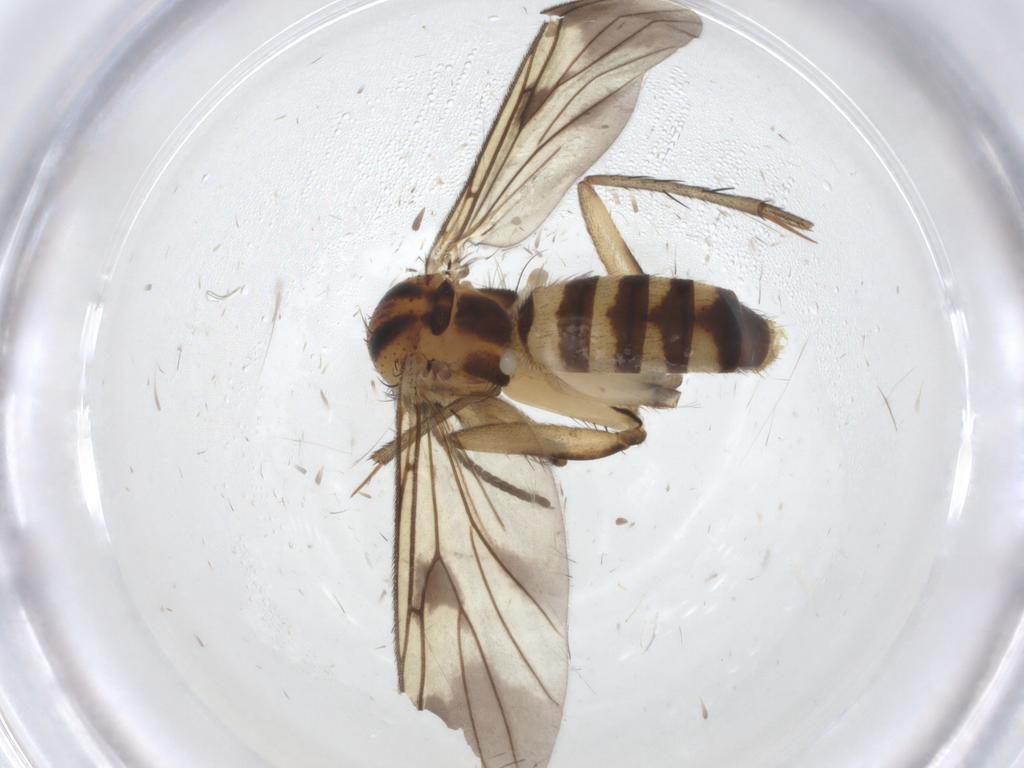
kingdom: Animalia
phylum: Arthropoda
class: Insecta
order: Diptera
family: Mycetophilidae
